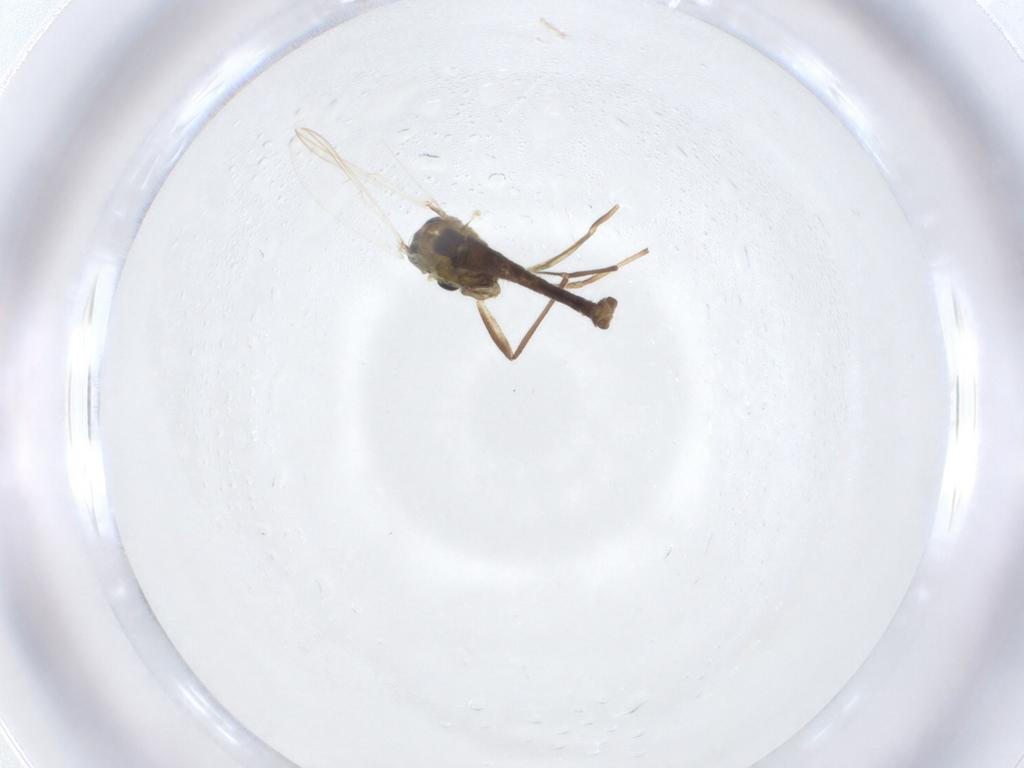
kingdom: Animalia
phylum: Arthropoda
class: Insecta
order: Diptera
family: Chironomidae
